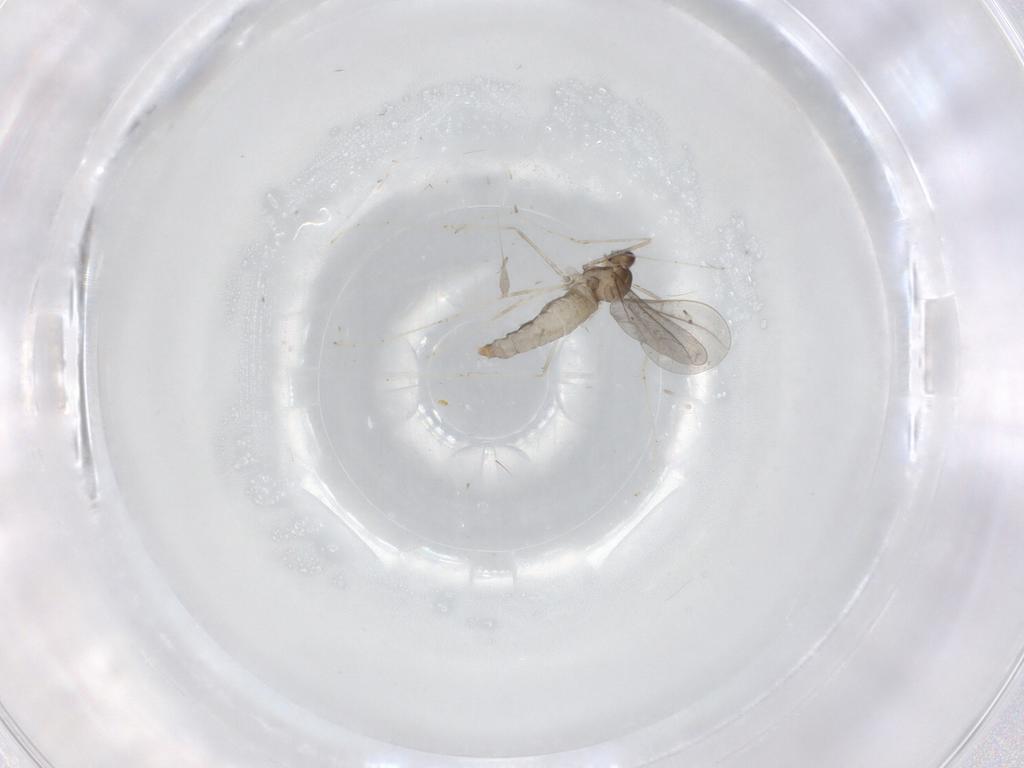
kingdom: Animalia
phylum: Arthropoda
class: Insecta
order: Diptera
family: Cecidomyiidae
